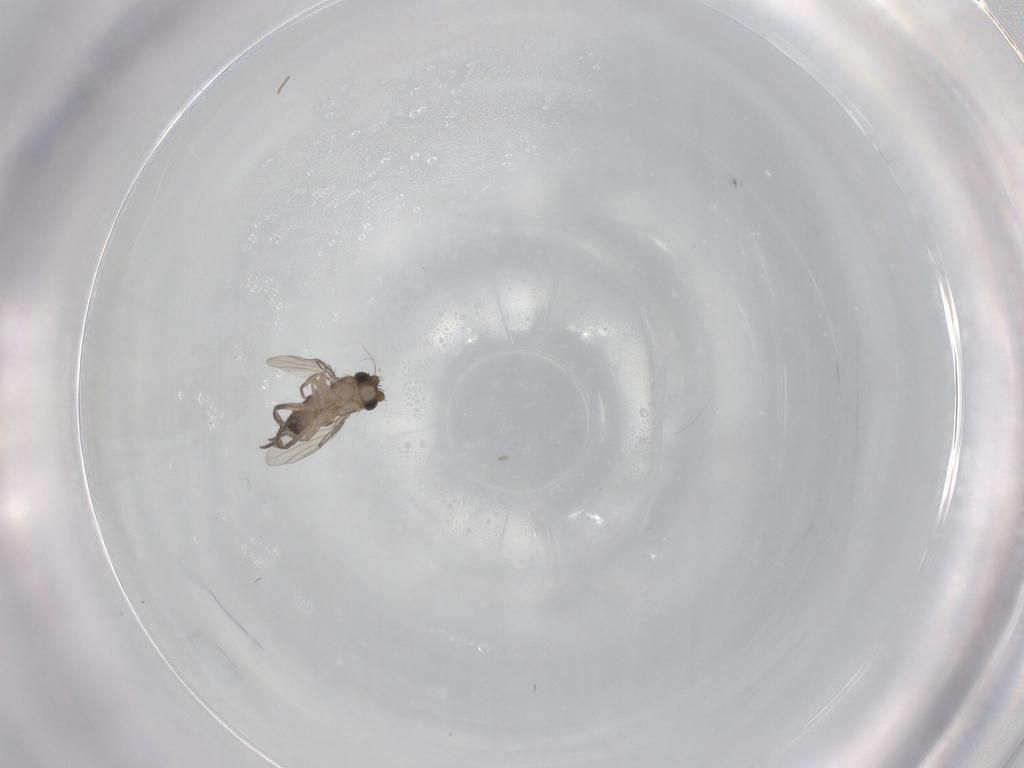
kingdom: Animalia
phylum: Arthropoda
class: Insecta
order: Diptera
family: Phoridae
